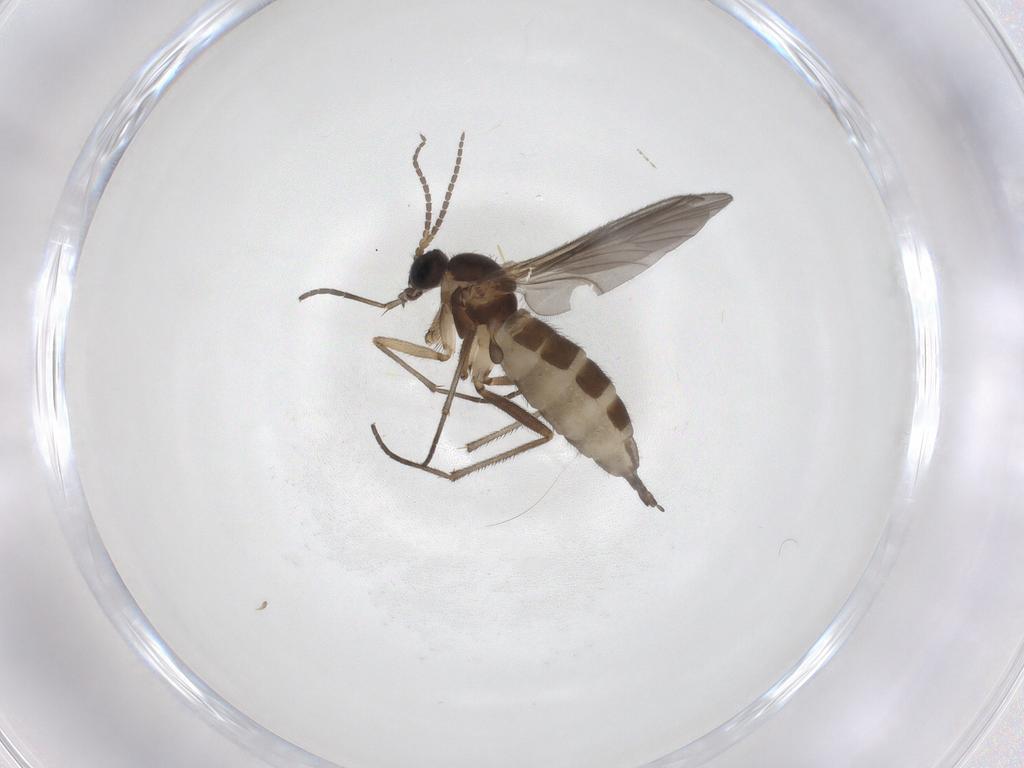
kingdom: Animalia
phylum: Arthropoda
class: Insecta
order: Diptera
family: Sciaridae
